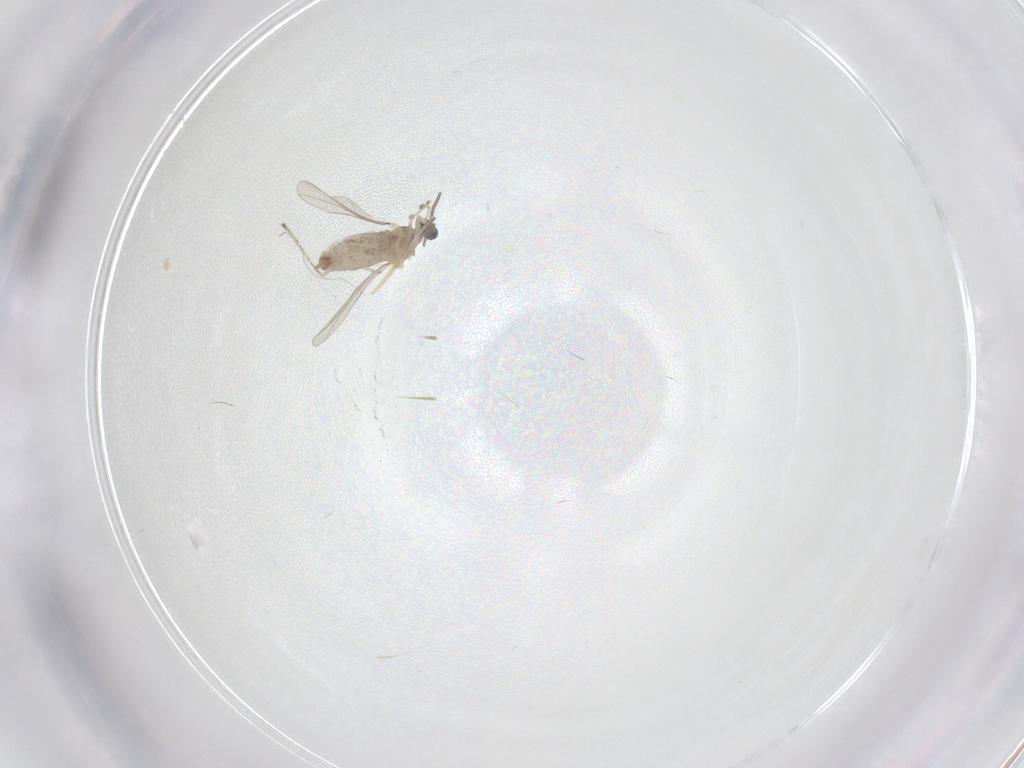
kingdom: Animalia
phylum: Arthropoda
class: Insecta
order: Diptera
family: Cecidomyiidae
